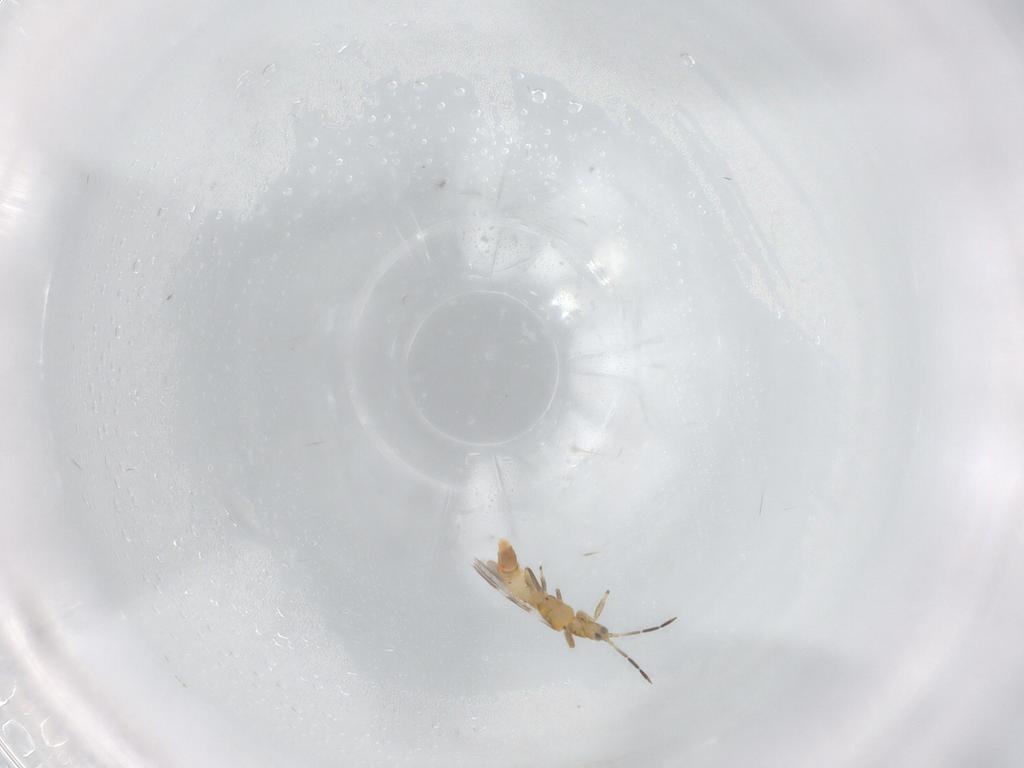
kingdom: Animalia
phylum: Arthropoda
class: Insecta
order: Thysanoptera
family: Aeolothripidae
